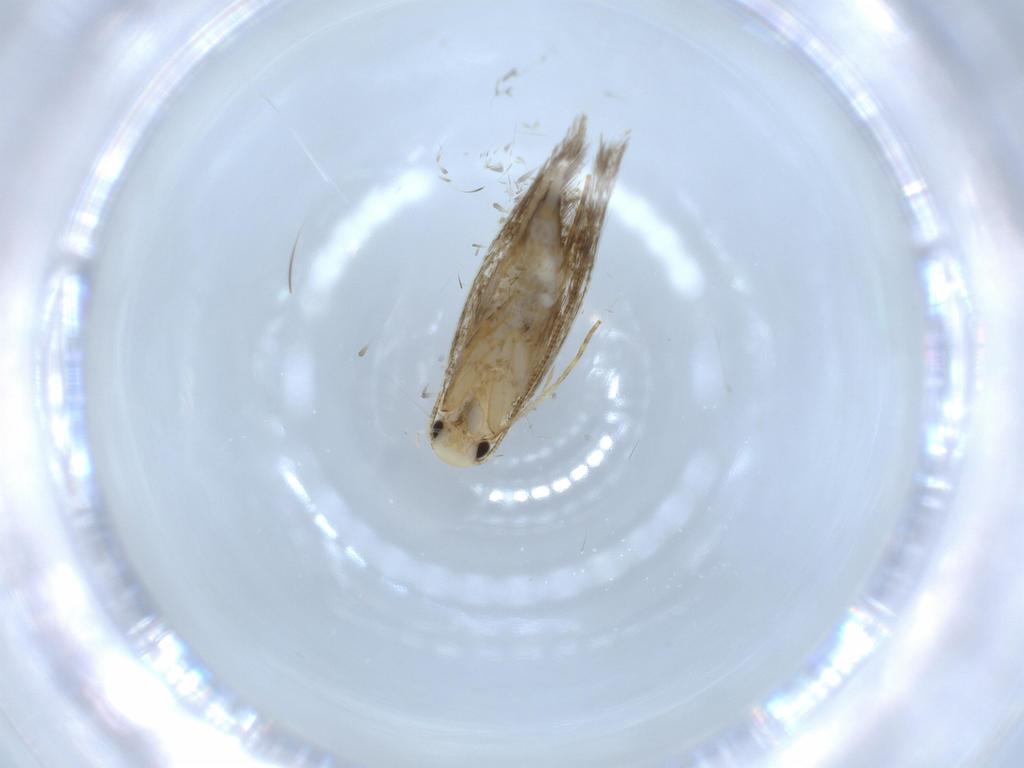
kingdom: Animalia
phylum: Arthropoda
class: Insecta
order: Lepidoptera
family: Tineidae
